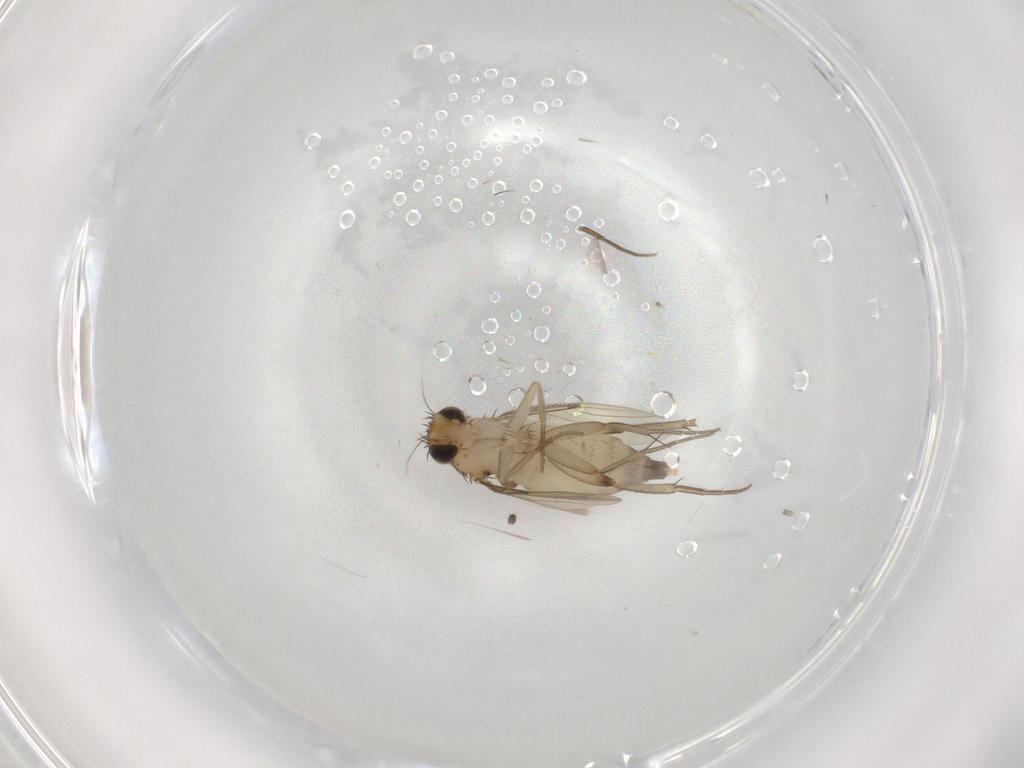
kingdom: Animalia
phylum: Arthropoda
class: Insecta
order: Diptera
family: Phoridae
